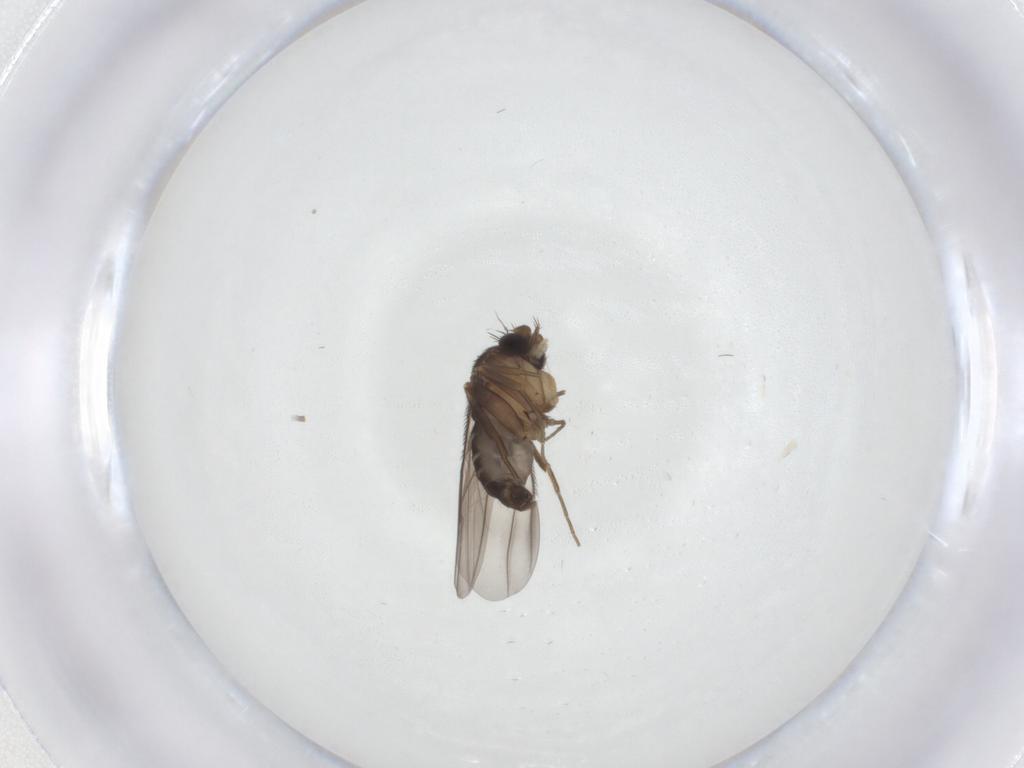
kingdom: Animalia
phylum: Arthropoda
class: Insecta
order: Diptera
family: Phoridae
